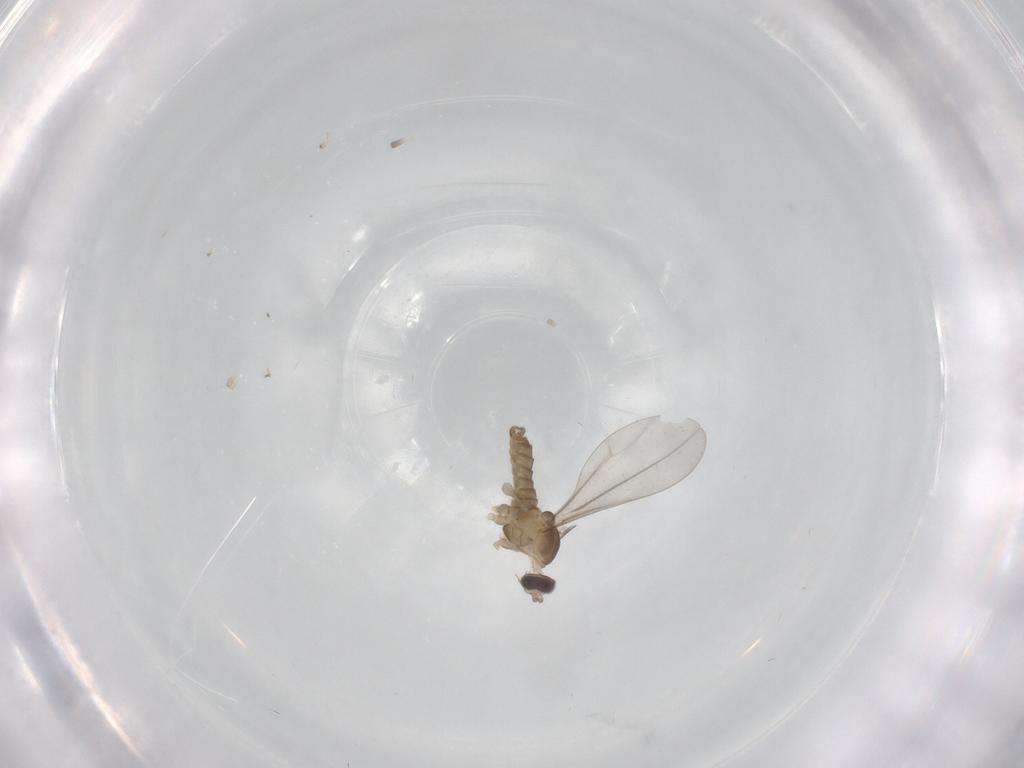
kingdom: Animalia
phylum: Arthropoda
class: Insecta
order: Diptera
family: Cecidomyiidae
